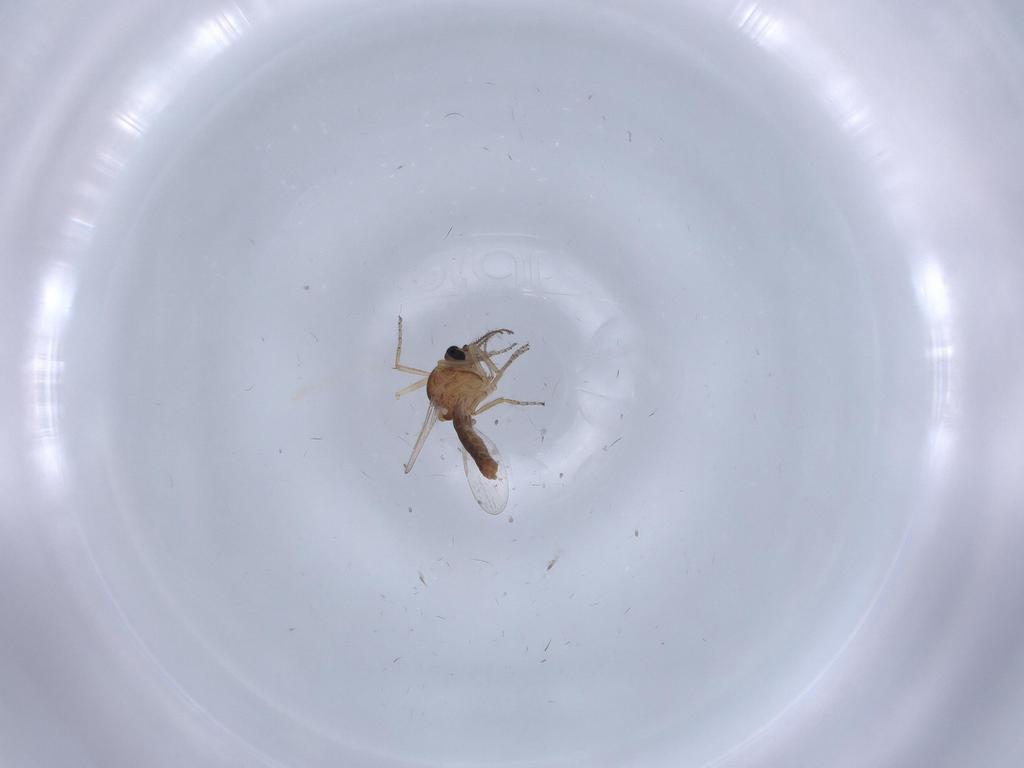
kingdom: Animalia
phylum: Arthropoda
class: Insecta
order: Diptera
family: Ceratopogonidae
